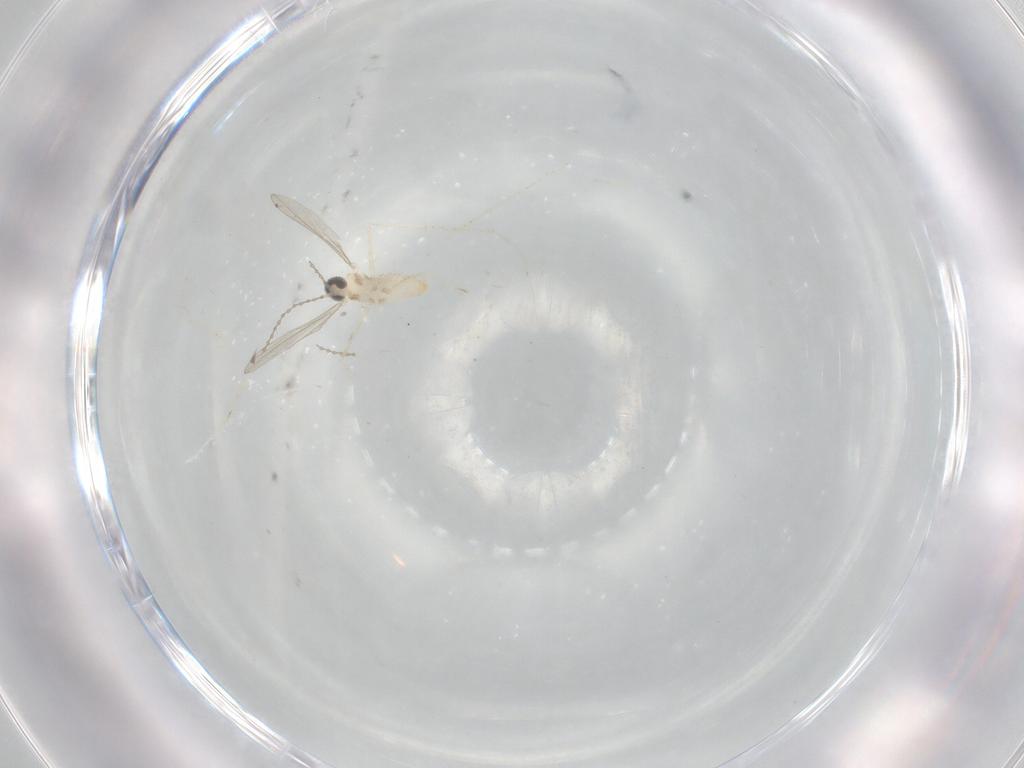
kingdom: Animalia
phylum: Arthropoda
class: Insecta
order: Diptera
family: Cecidomyiidae
